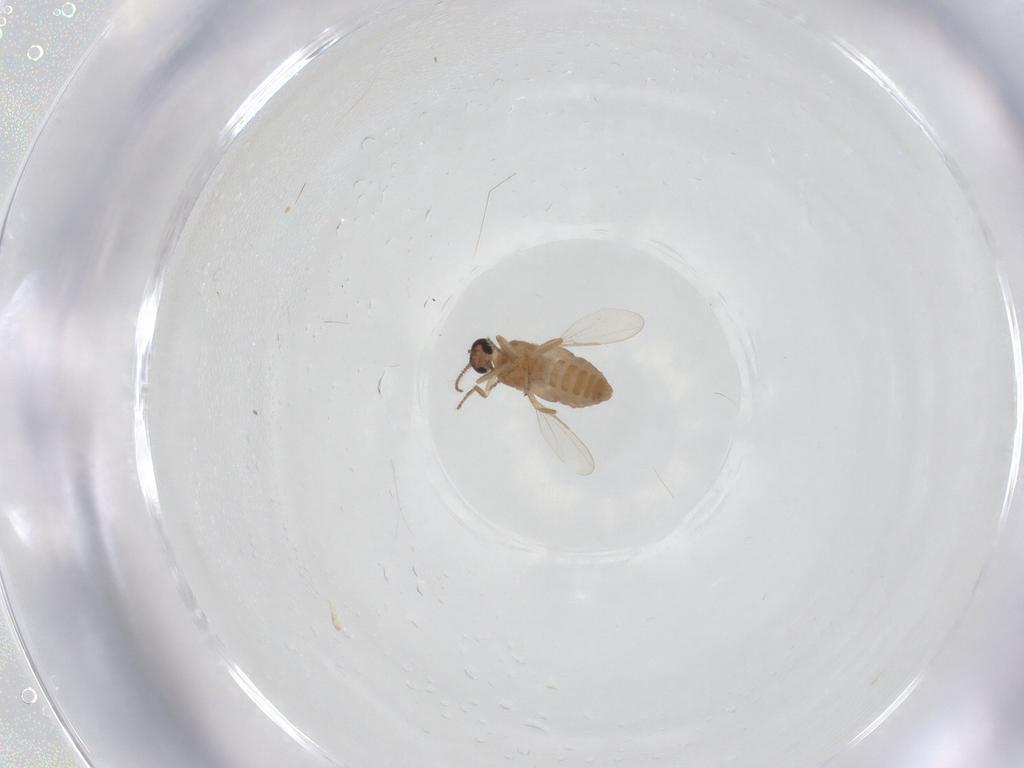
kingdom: Animalia
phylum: Arthropoda
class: Insecta
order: Diptera
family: Ceratopogonidae
